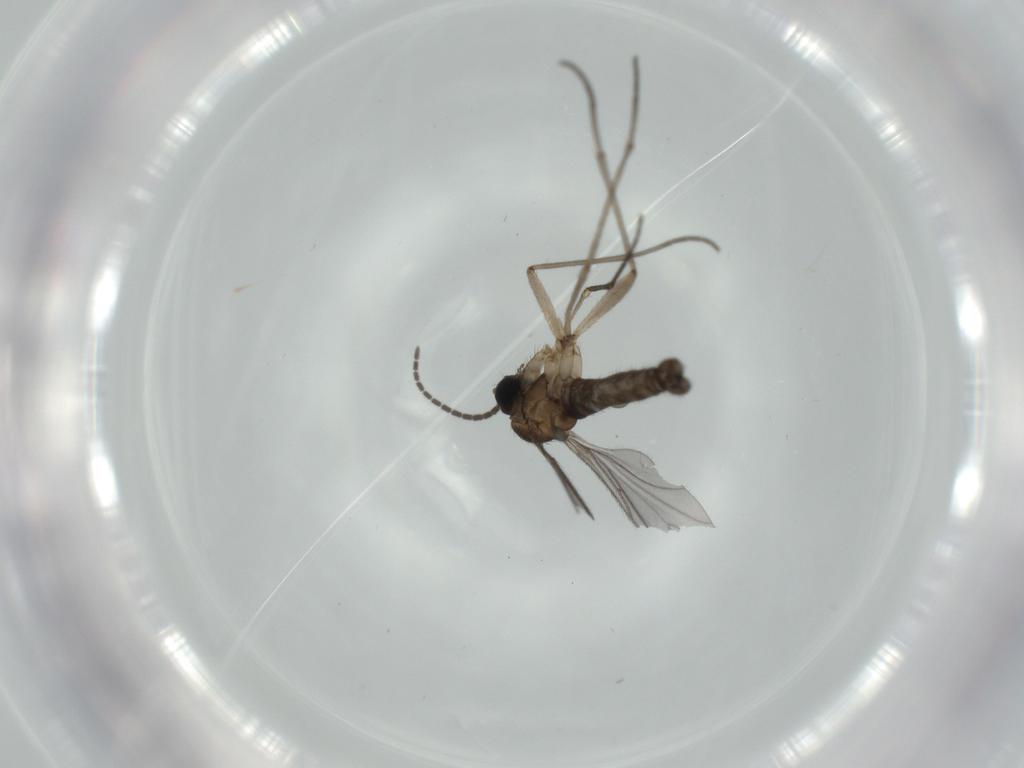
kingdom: Animalia
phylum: Arthropoda
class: Insecta
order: Diptera
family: Sciaridae
